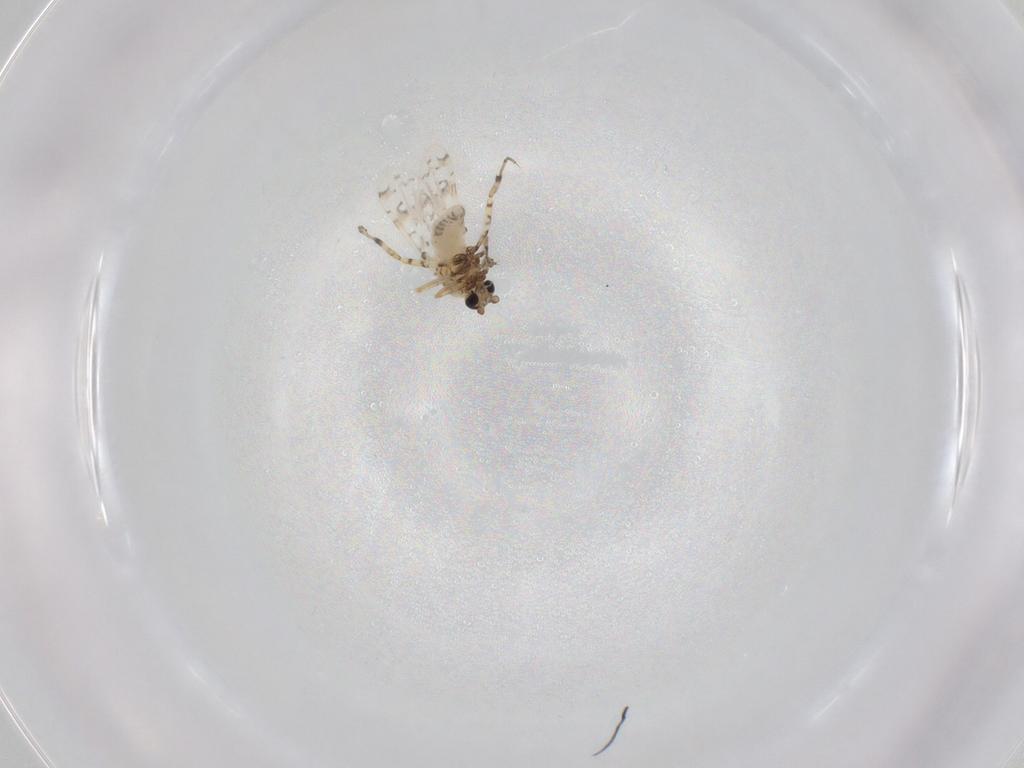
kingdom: Animalia
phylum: Arthropoda
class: Insecta
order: Diptera
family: Ceratopogonidae
